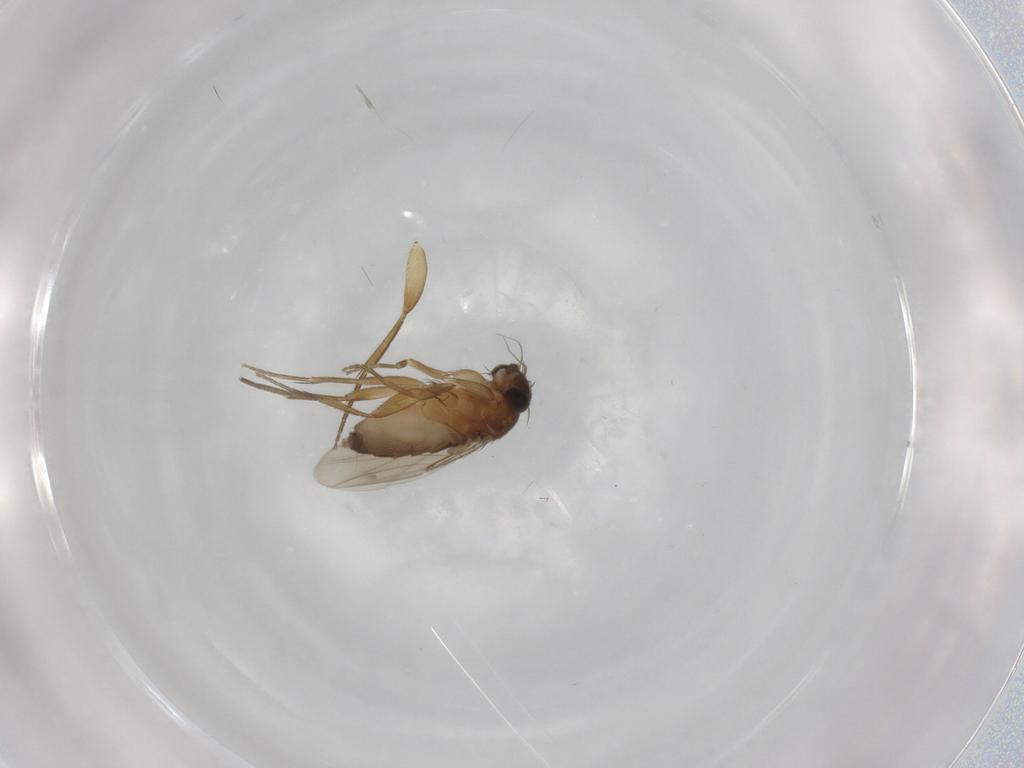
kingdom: Animalia
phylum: Arthropoda
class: Insecta
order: Diptera
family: Phoridae
